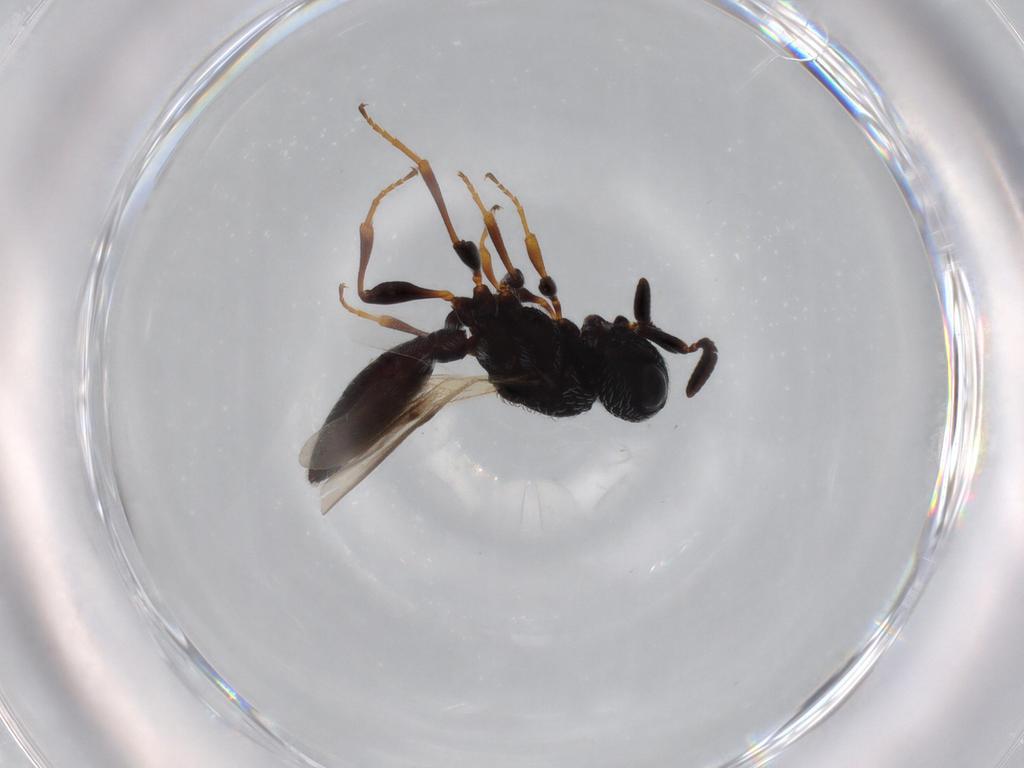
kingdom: Animalia
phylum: Arthropoda
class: Insecta
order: Hymenoptera
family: Scelionidae
